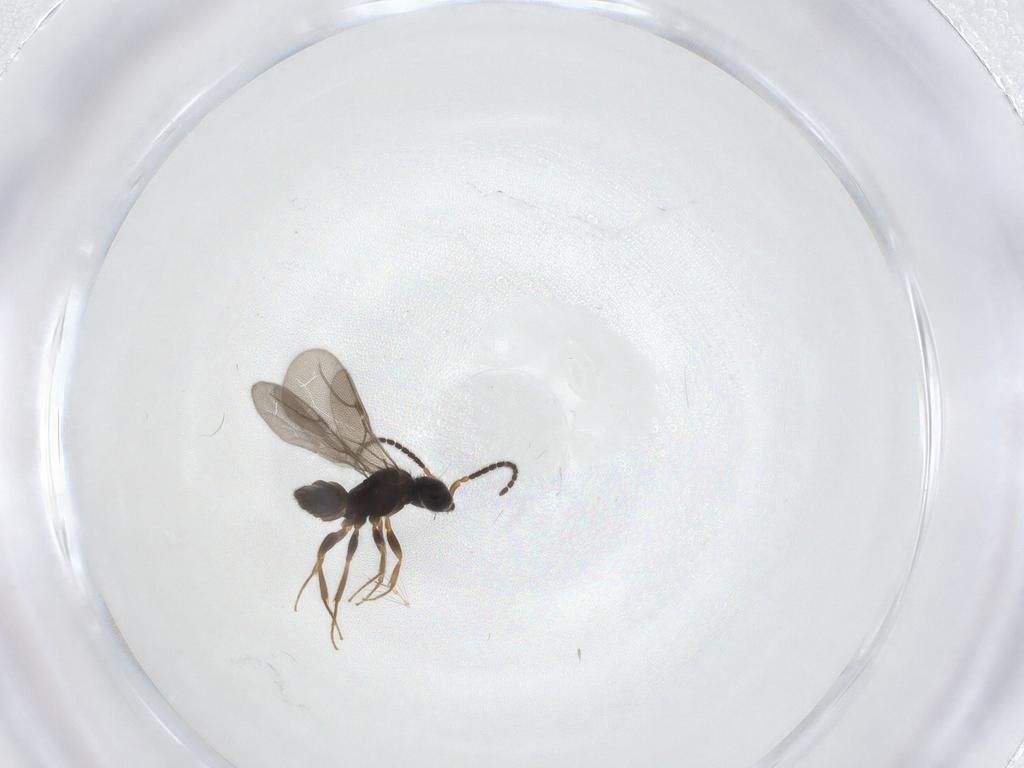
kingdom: Animalia
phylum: Arthropoda
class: Insecta
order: Hymenoptera
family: Bethylidae
